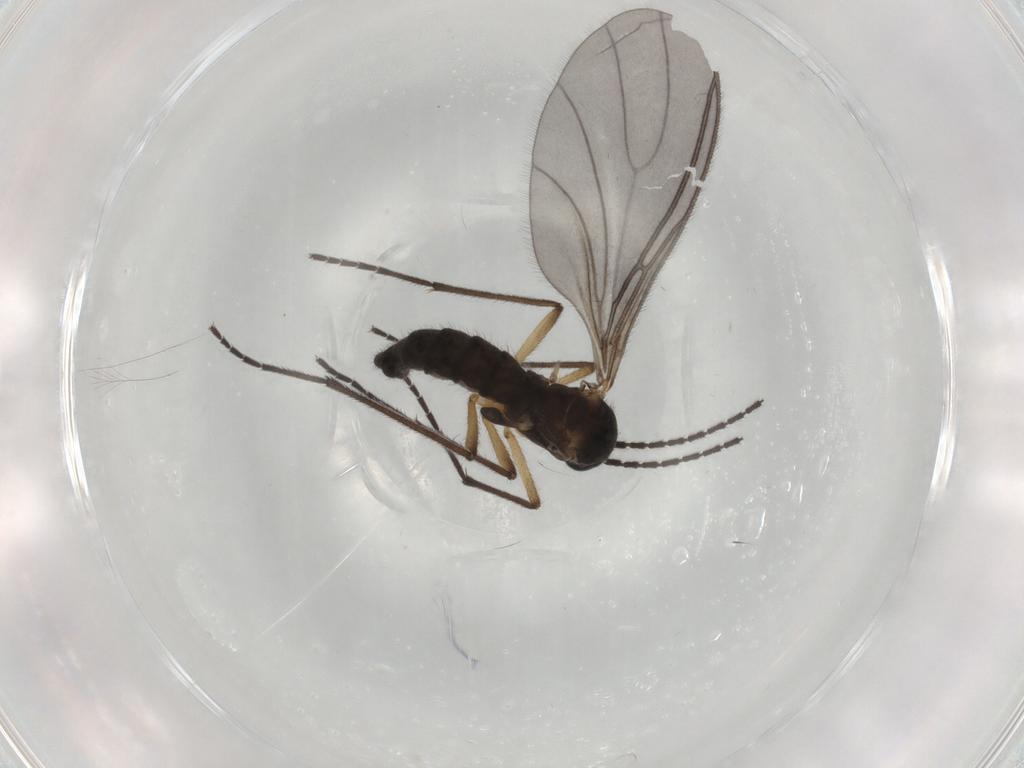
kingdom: Animalia
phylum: Arthropoda
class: Insecta
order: Diptera
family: Sciaridae
